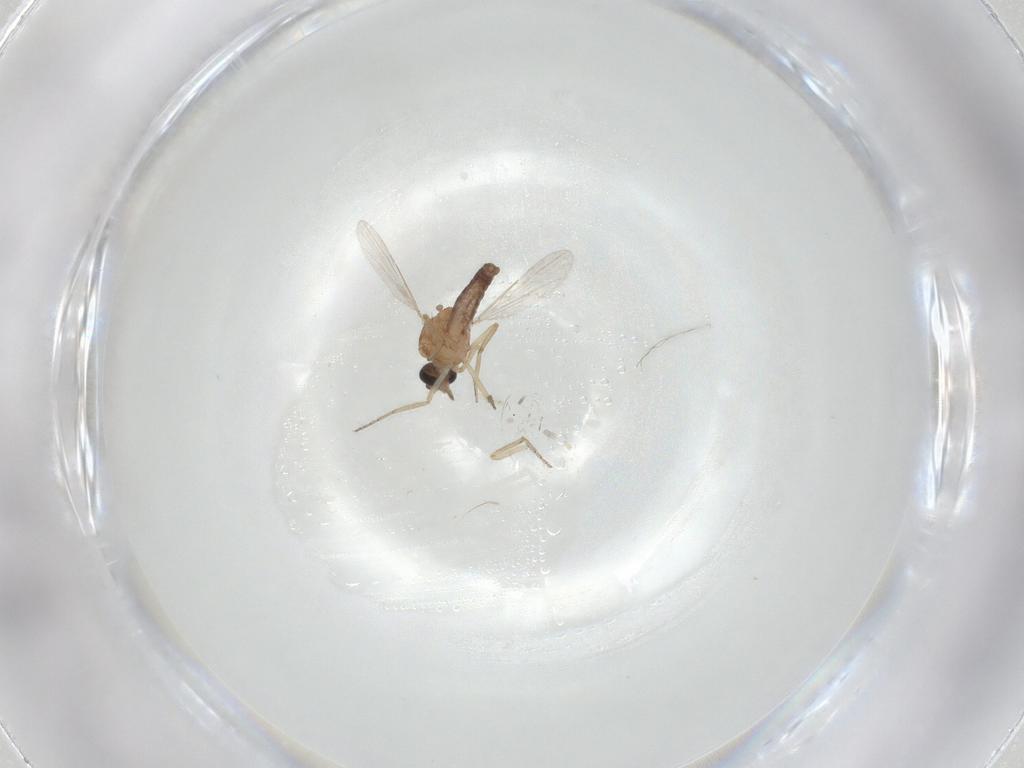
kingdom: Animalia
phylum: Arthropoda
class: Insecta
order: Diptera
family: Ceratopogonidae
